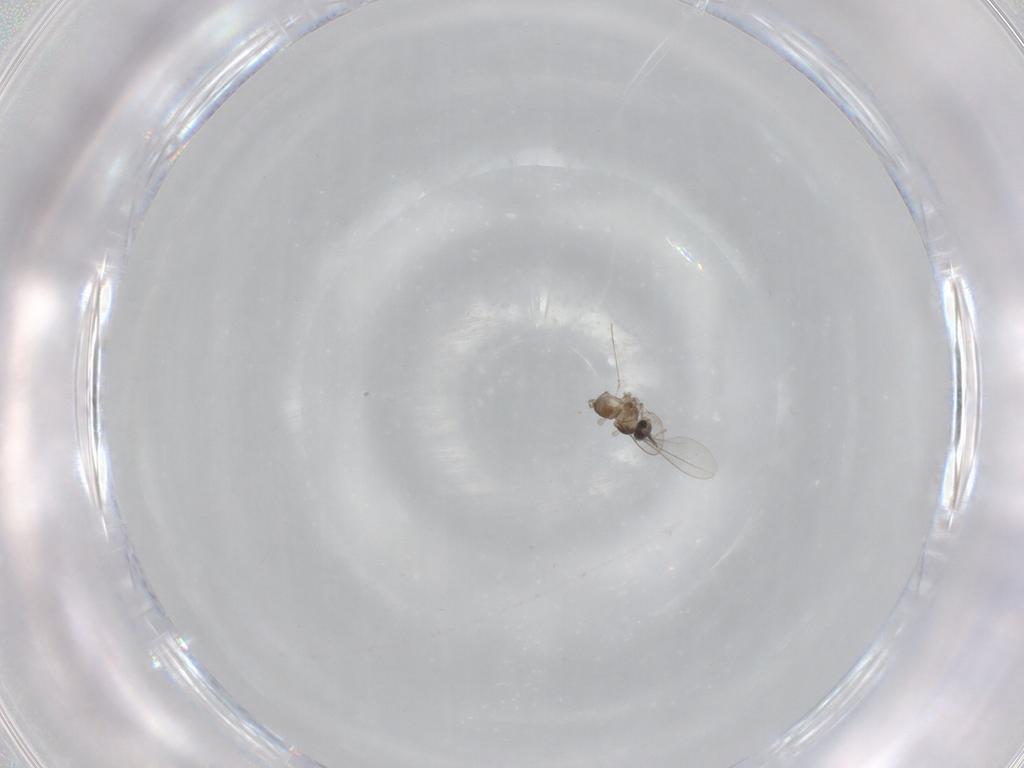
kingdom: Animalia
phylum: Arthropoda
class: Insecta
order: Diptera
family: Cecidomyiidae
